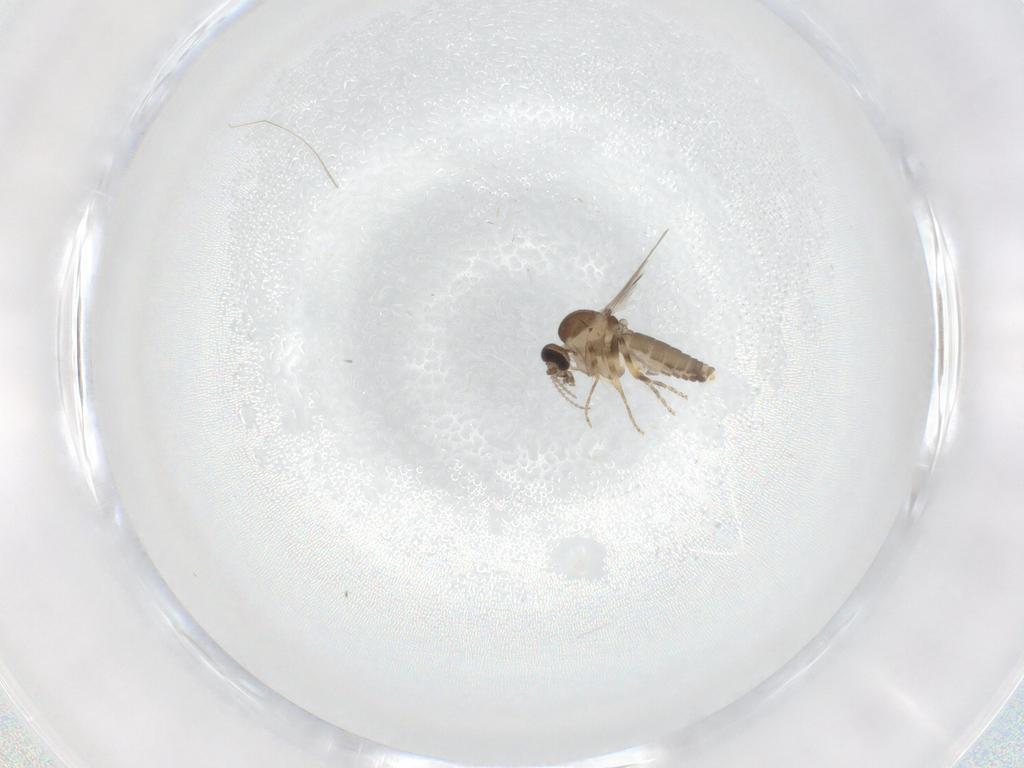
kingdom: Animalia
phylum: Arthropoda
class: Insecta
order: Diptera
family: Ceratopogonidae
